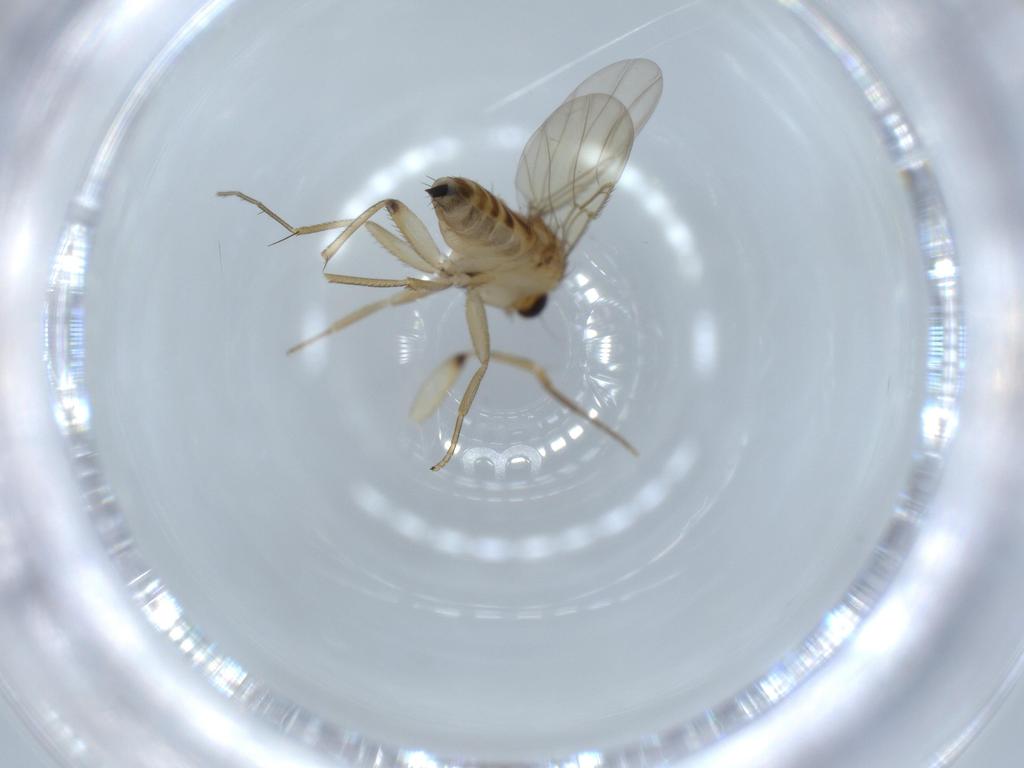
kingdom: Animalia
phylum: Arthropoda
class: Insecta
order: Diptera
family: Phoridae
